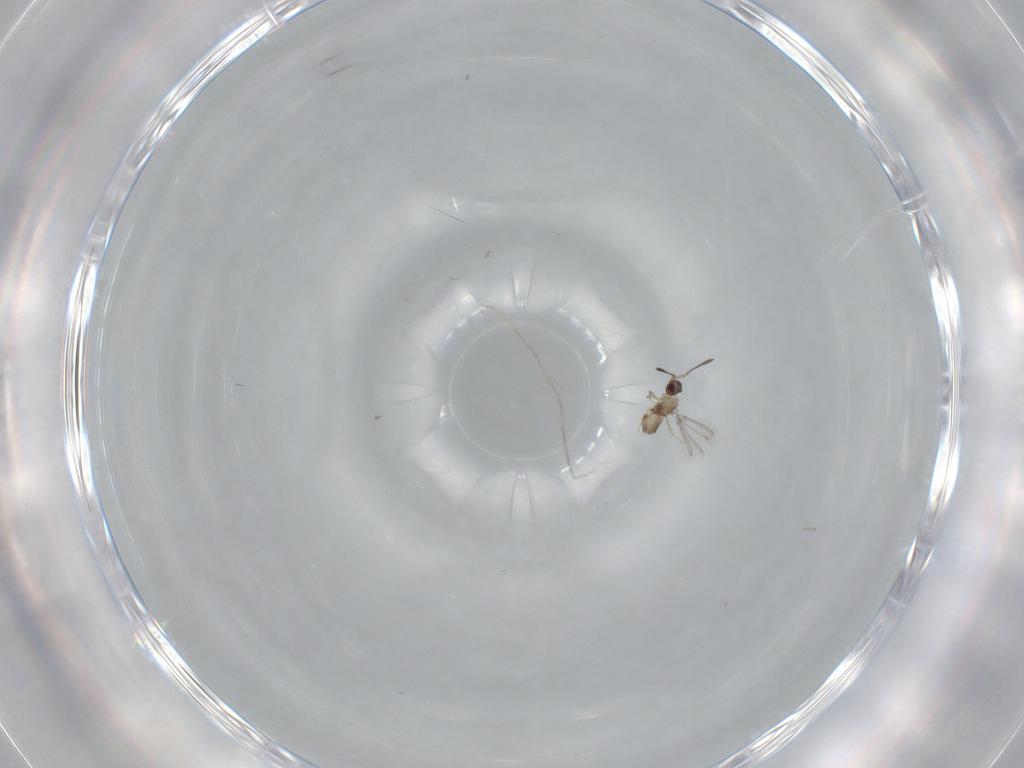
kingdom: Animalia
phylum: Arthropoda
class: Insecta
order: Hymenoptera
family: Mymaridae
